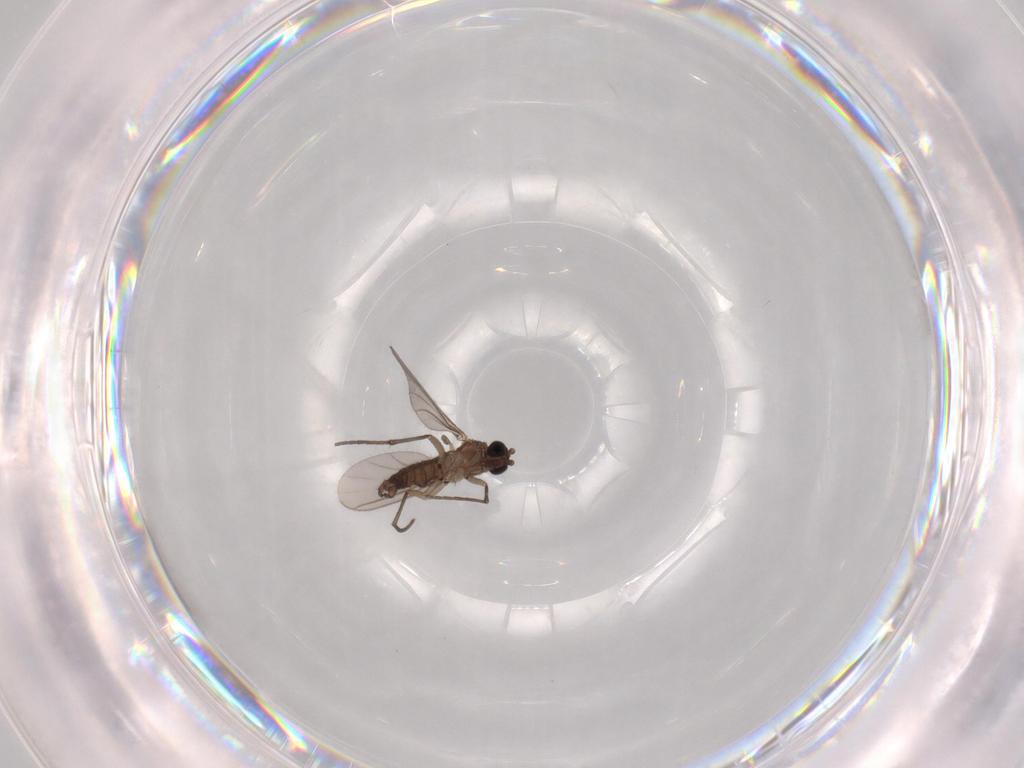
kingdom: Animalia
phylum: Arthropoda
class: Insecta
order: Diptera
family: Sciaridae
